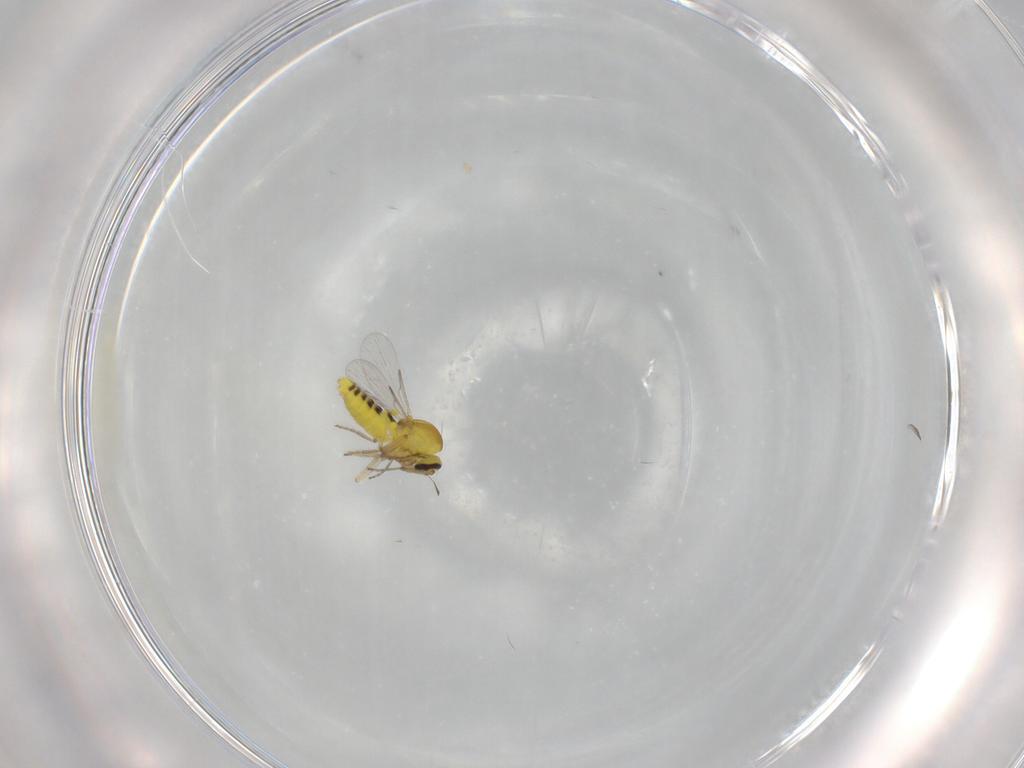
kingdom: Animalia
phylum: Arthropoda
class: Insecta
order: Diptera
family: Ceratopogonidae
